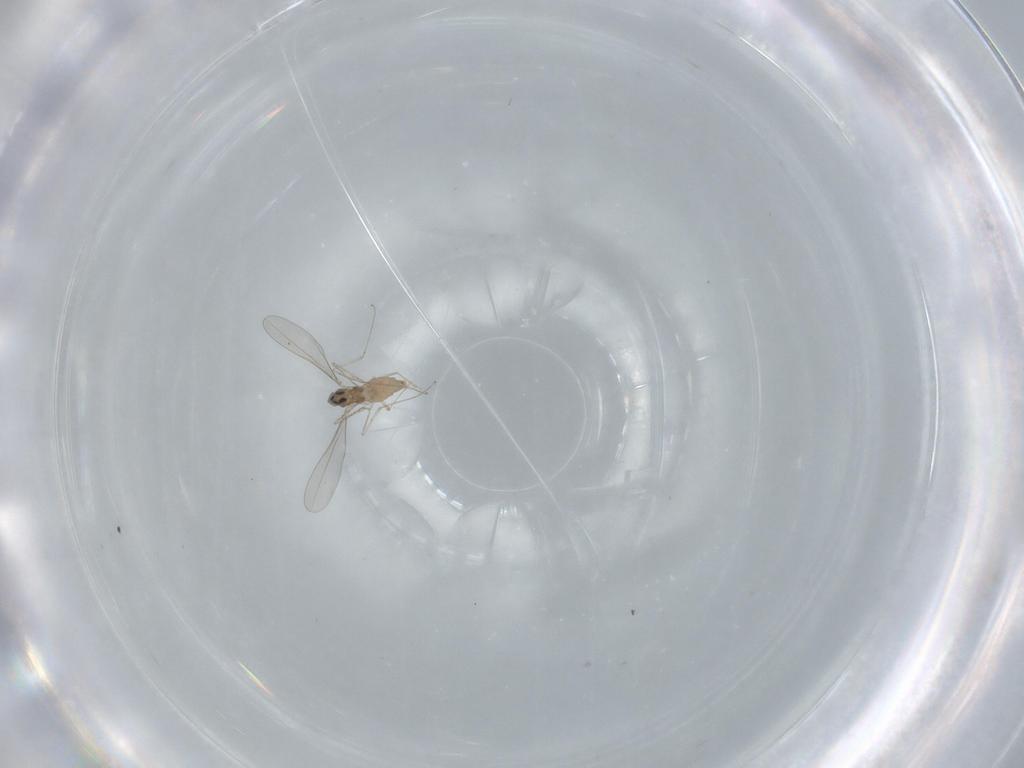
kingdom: Animalia
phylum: Arthropoda
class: Insecta
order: Diptera
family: Cecidomyiidae
